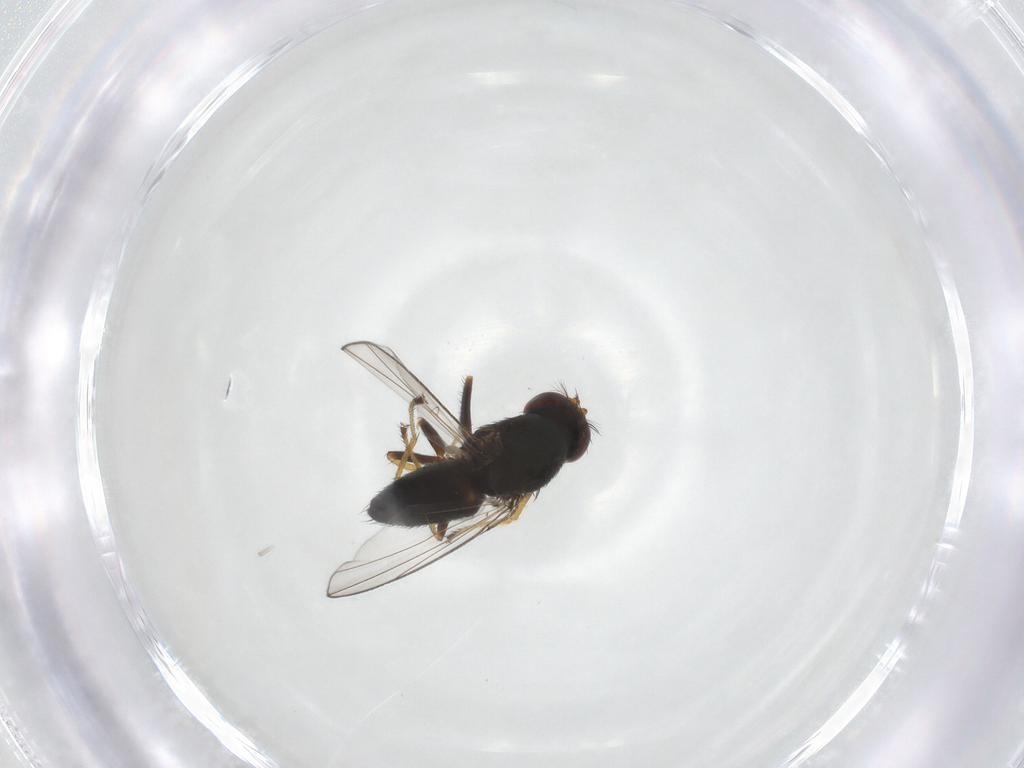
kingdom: Animalia
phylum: Arthropoda
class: Insecta
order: Diptera
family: Ephydridae
